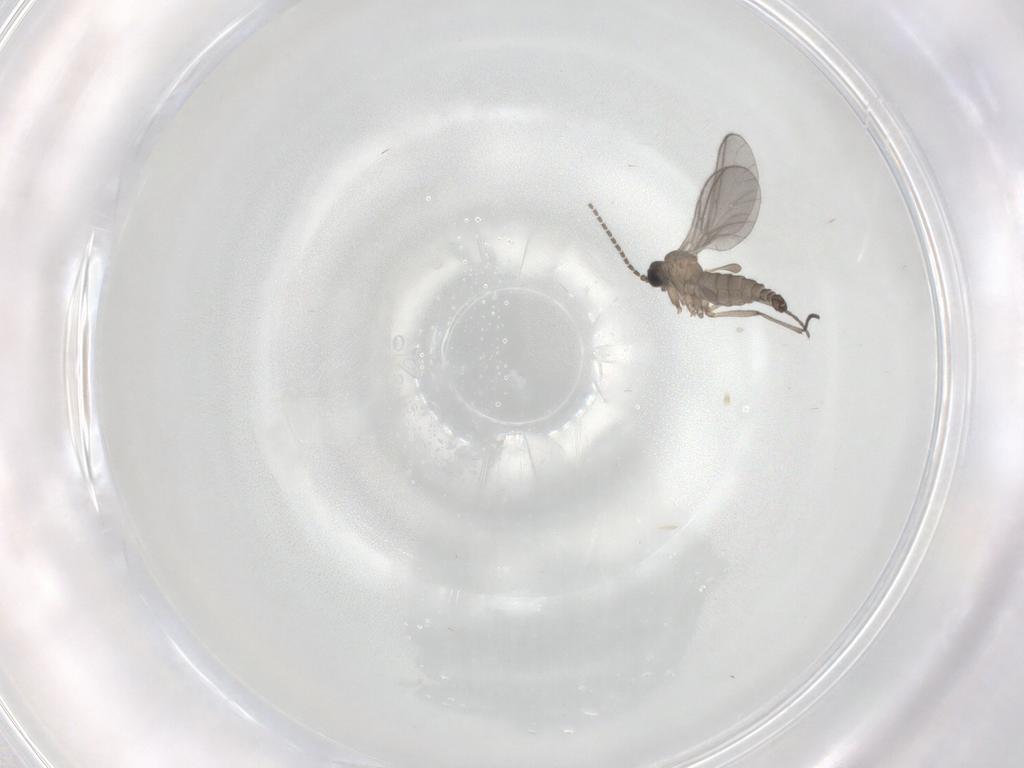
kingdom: Animalia
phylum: Arthropoda
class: Insecta
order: Diptera
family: Sciaridae
